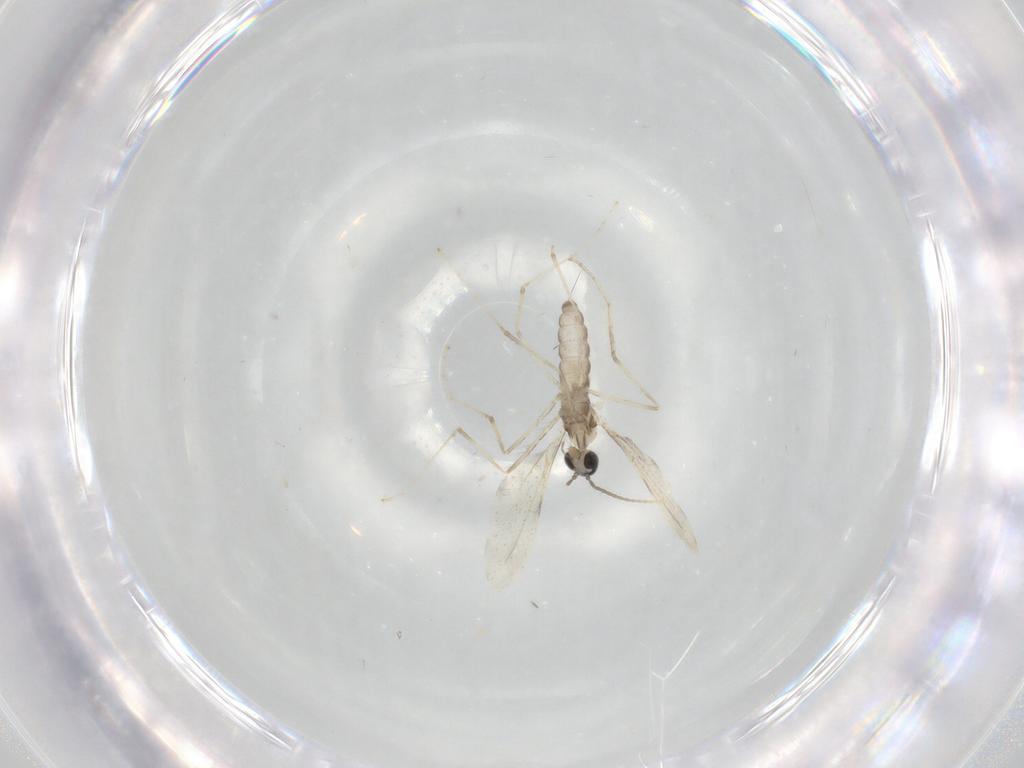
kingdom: Animalia
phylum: Arthropoda
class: Insecta
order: Diptera
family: Cecidomyiidae
